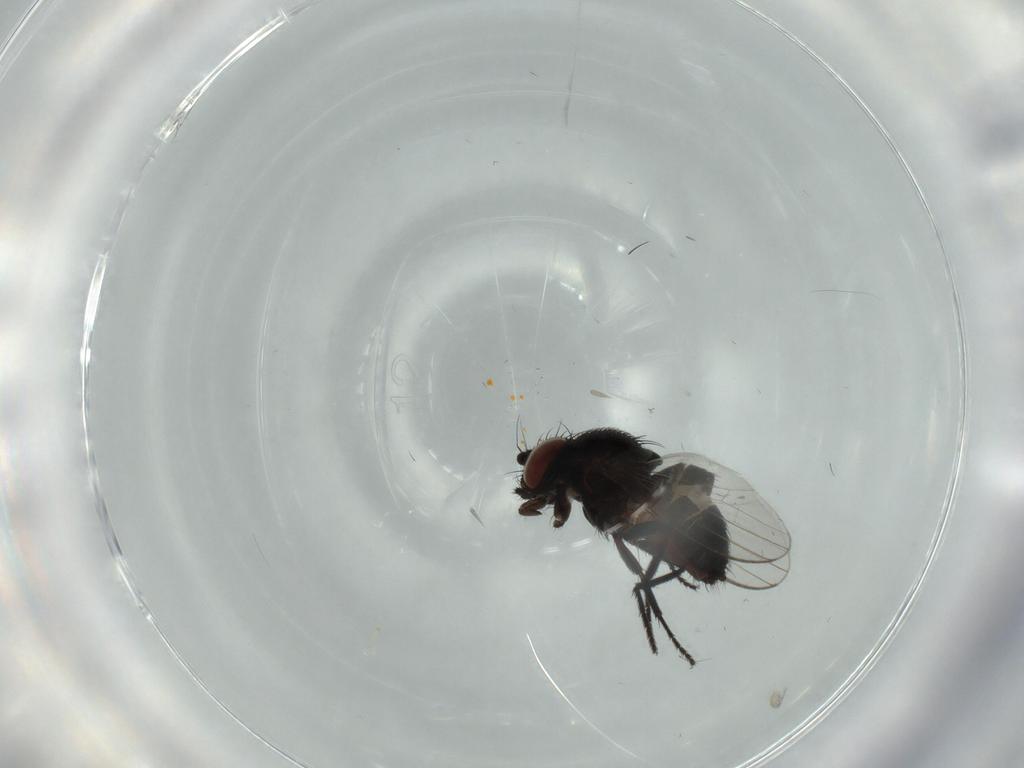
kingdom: Animalia
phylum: Arthropoda
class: Insecta
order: Diptera
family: Milichiidae
